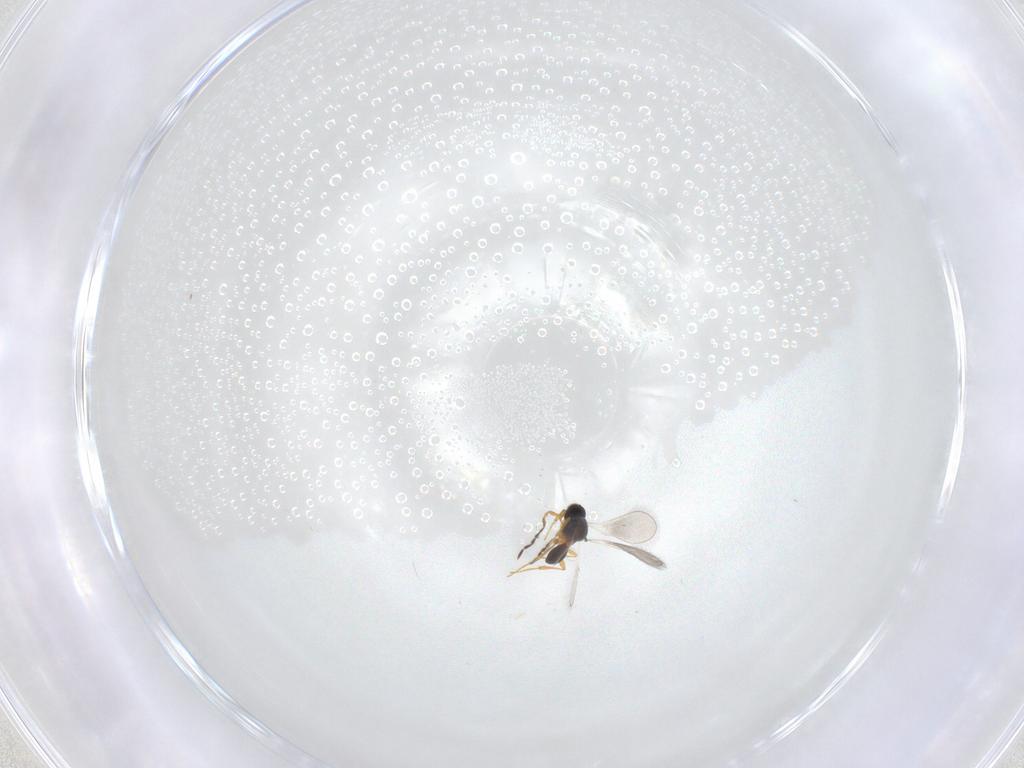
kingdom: Animalia
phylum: Arthropoda
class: Insecta
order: Hymenoptera
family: Platygastridae
